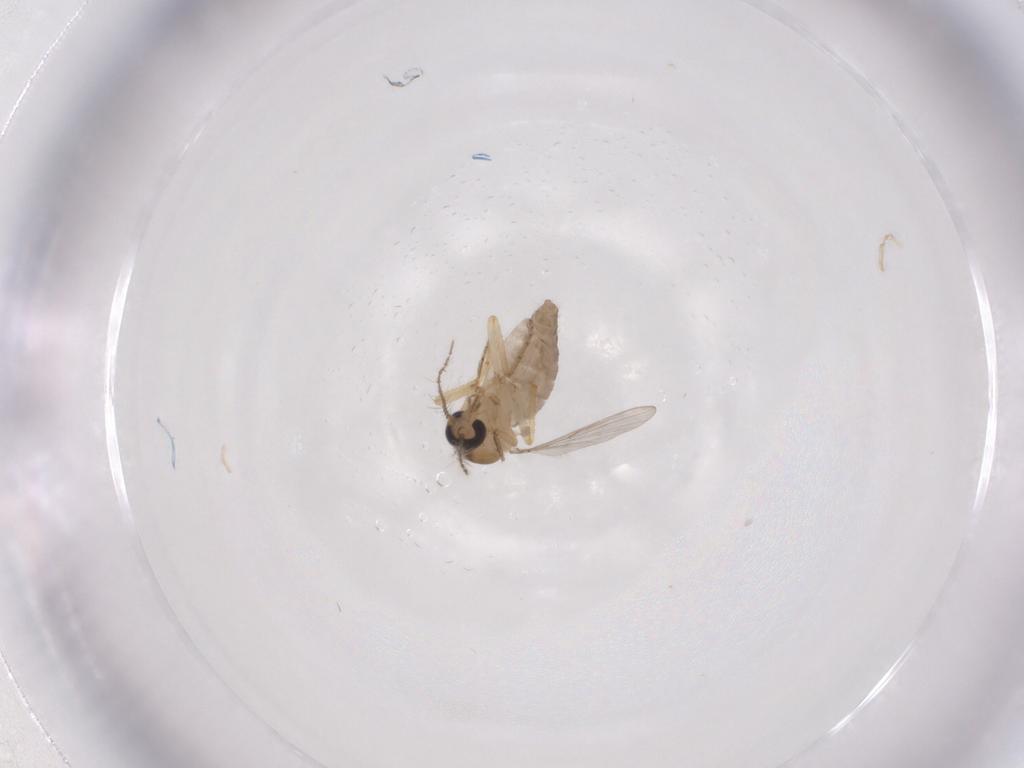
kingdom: Animalia
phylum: Arthropoda
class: Insecta
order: Diptera
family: Ceratopogonidae
